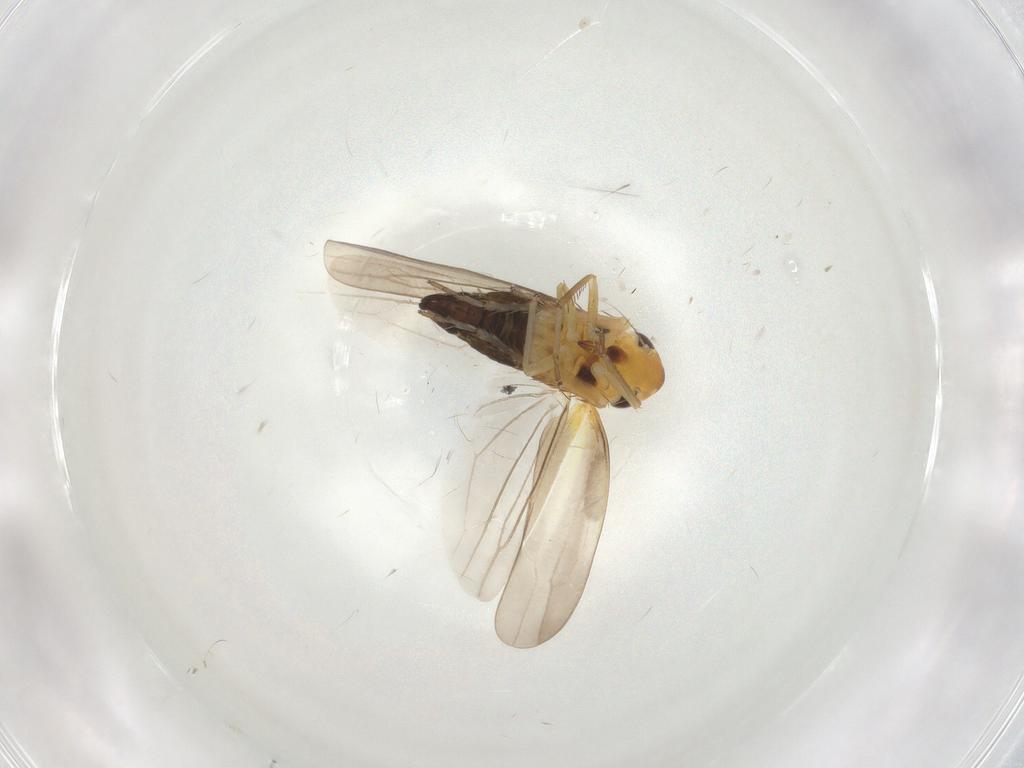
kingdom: Animalia
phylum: Arthropoda
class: Insecta
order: Hemiptera
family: Cicadellidae
